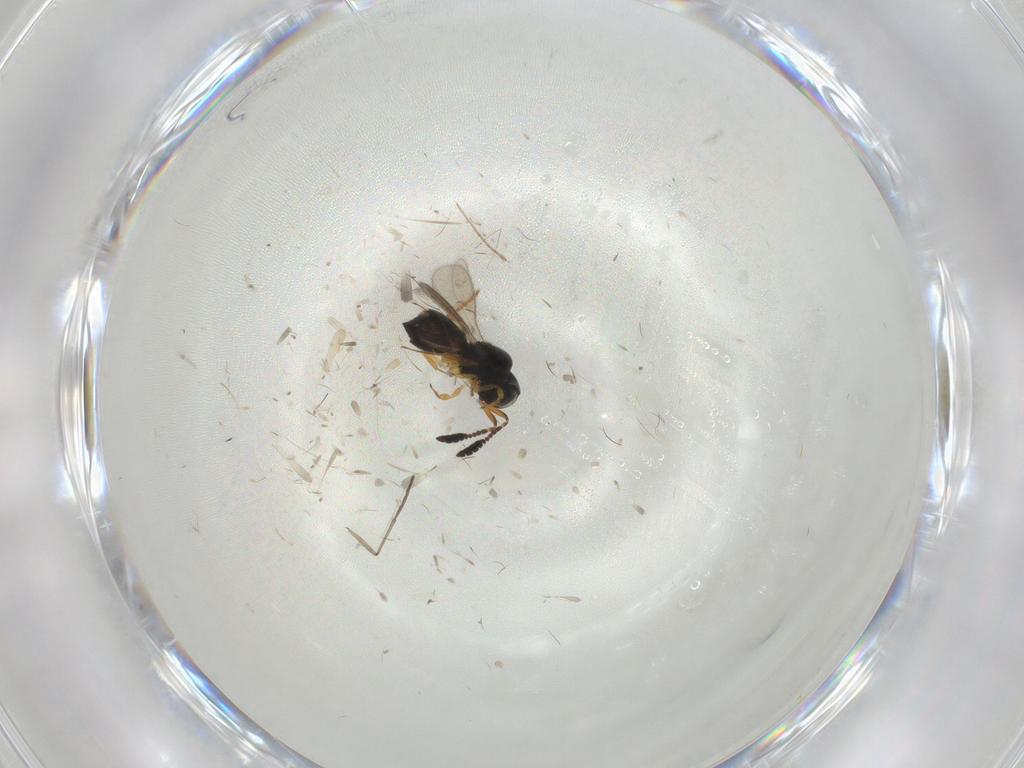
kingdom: Animalia
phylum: Arthropoda
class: Insecta
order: Hymenoptera
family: Scelionidae
